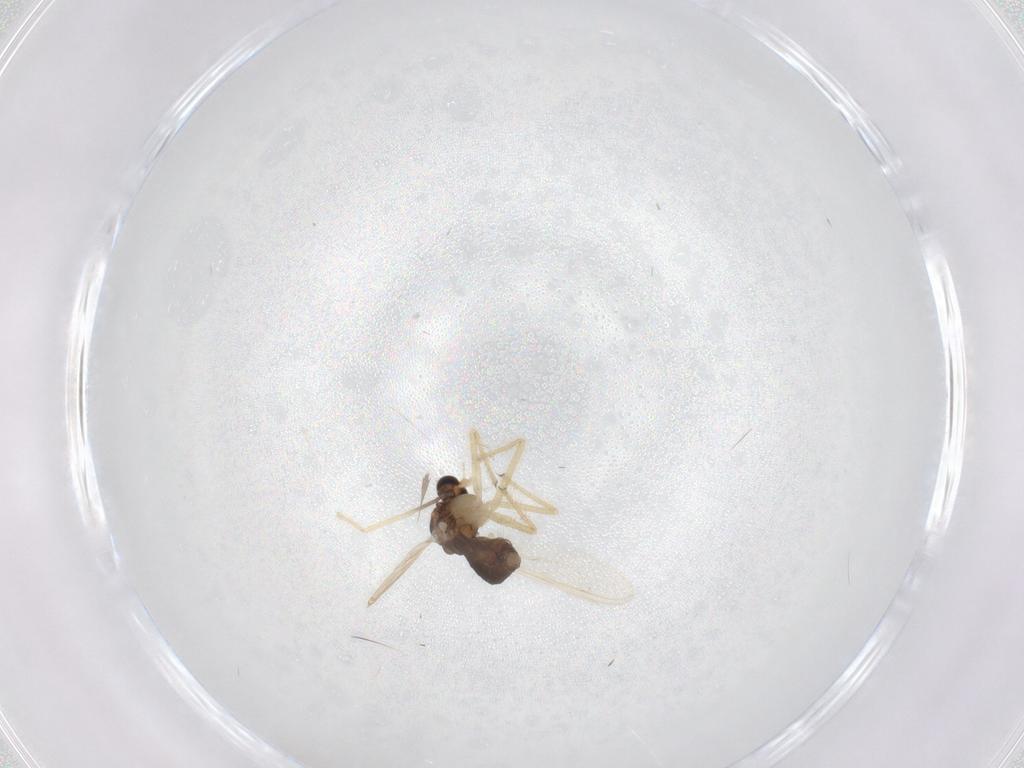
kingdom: Animalia
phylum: Arthropoda
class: Insecta
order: Diptera
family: Chironomidae
